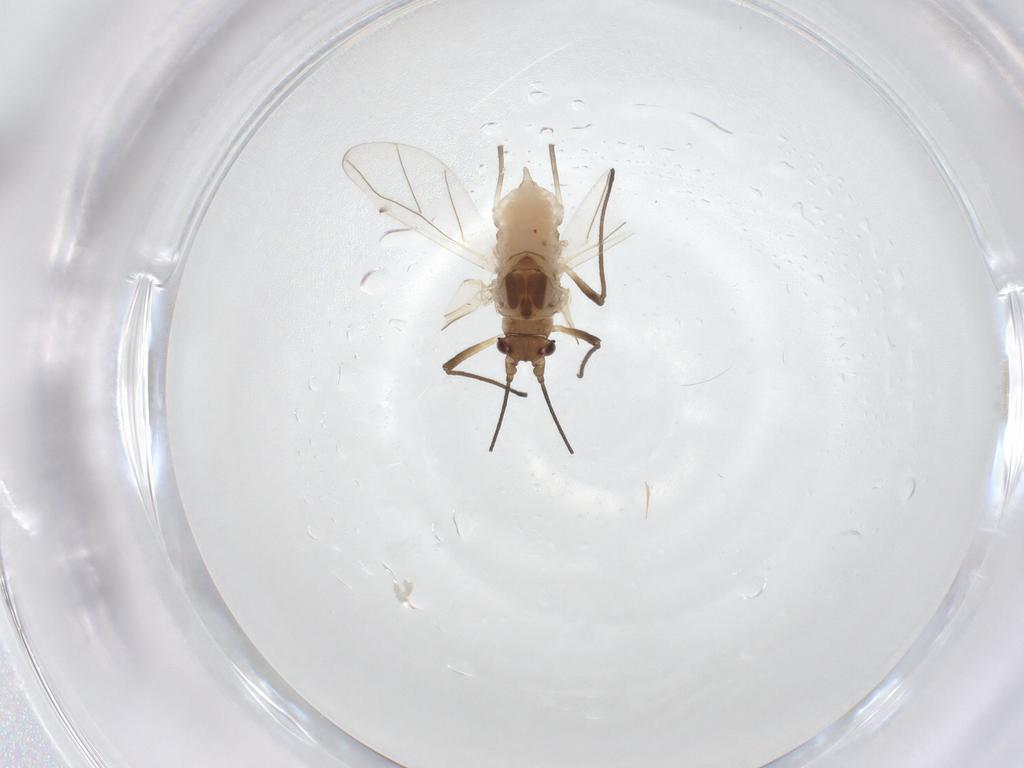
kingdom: Animalia
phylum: Arthropoda
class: Insecta
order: Hemiptera
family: Aphididae
